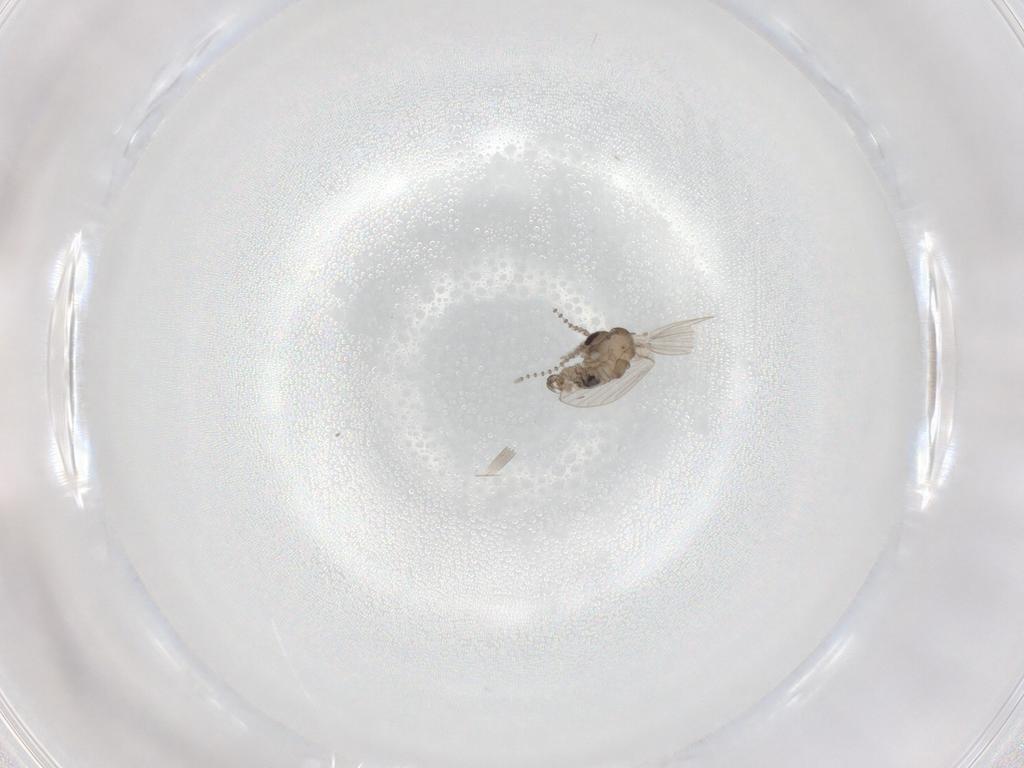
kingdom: Animalia
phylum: Arthropoda
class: Insecta
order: Diptera
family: Psychodidae
